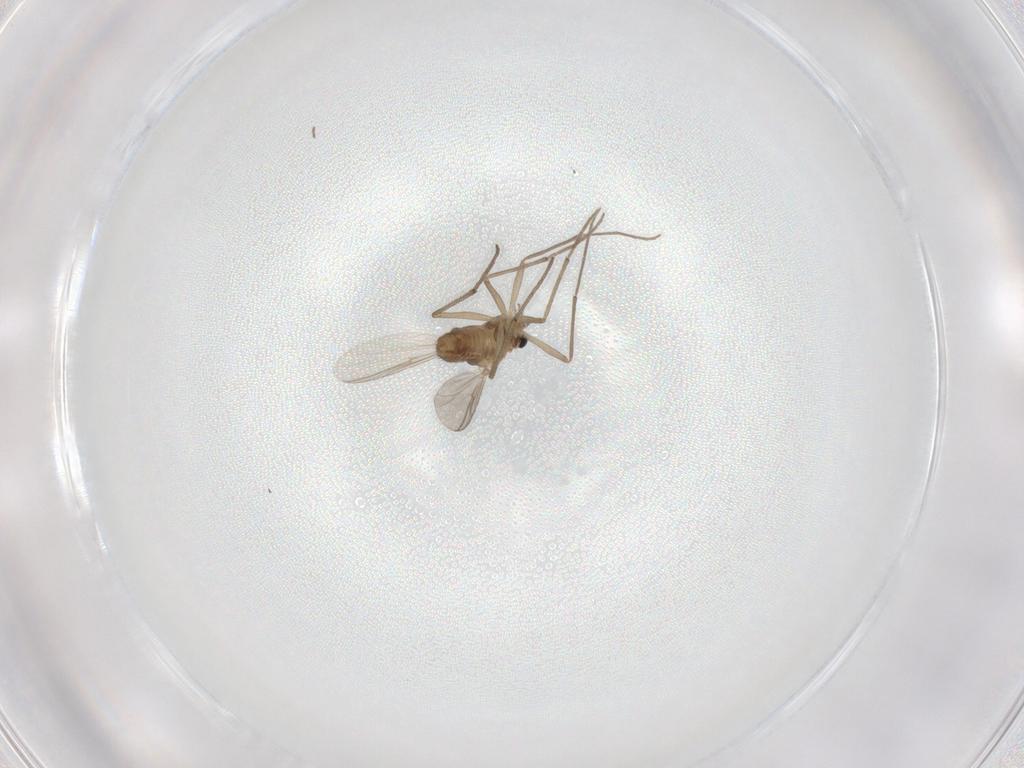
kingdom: Animalia
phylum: Arthropoda
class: Insecta
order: Diptera
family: Chironomidae
